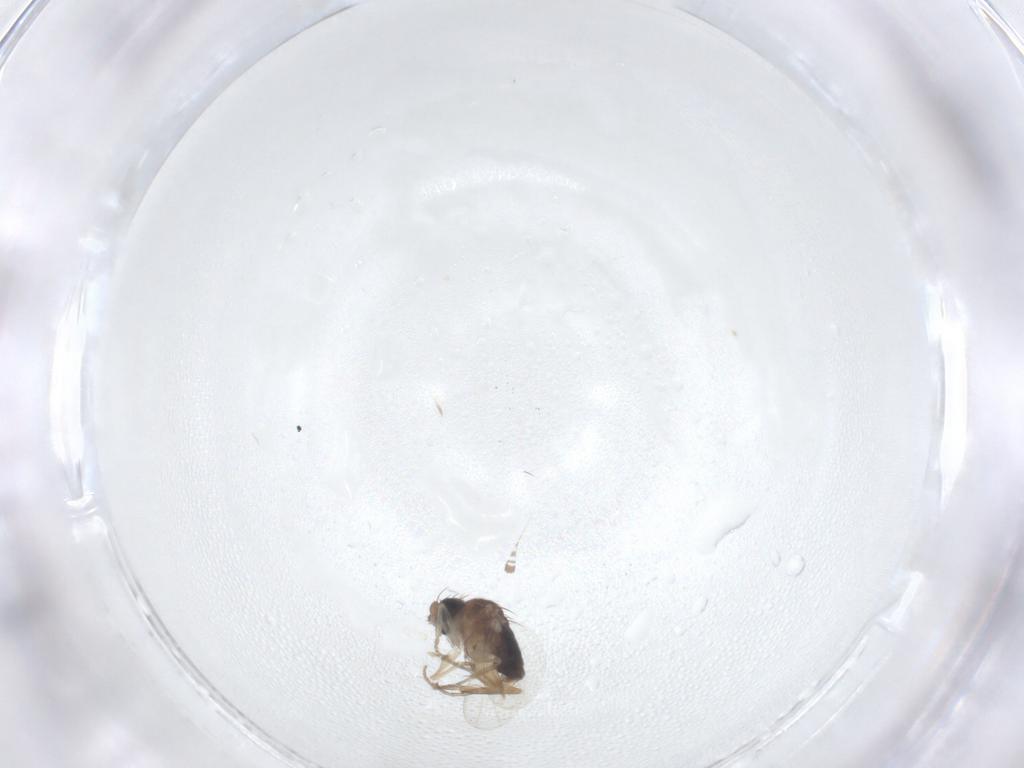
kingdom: Animalia
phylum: Arthropoda
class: Insecta
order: Diptera
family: Phoridae
